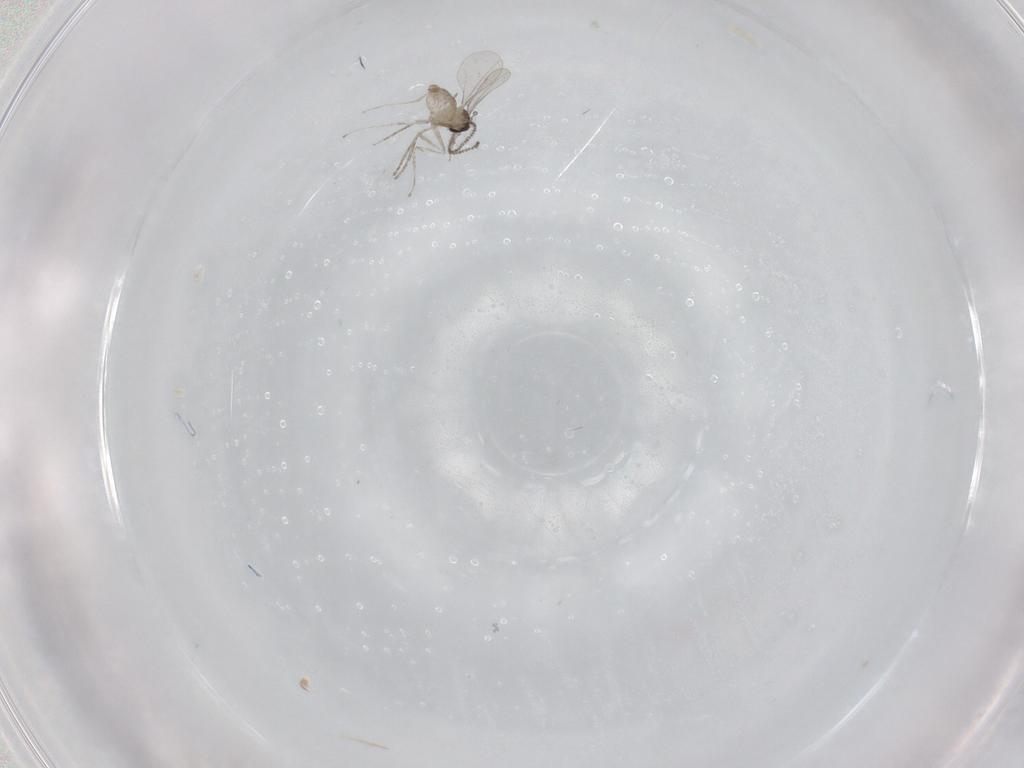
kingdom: Animalia
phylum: Arthropoda
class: Insecta
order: Diptera
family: Cecidomyiidae
